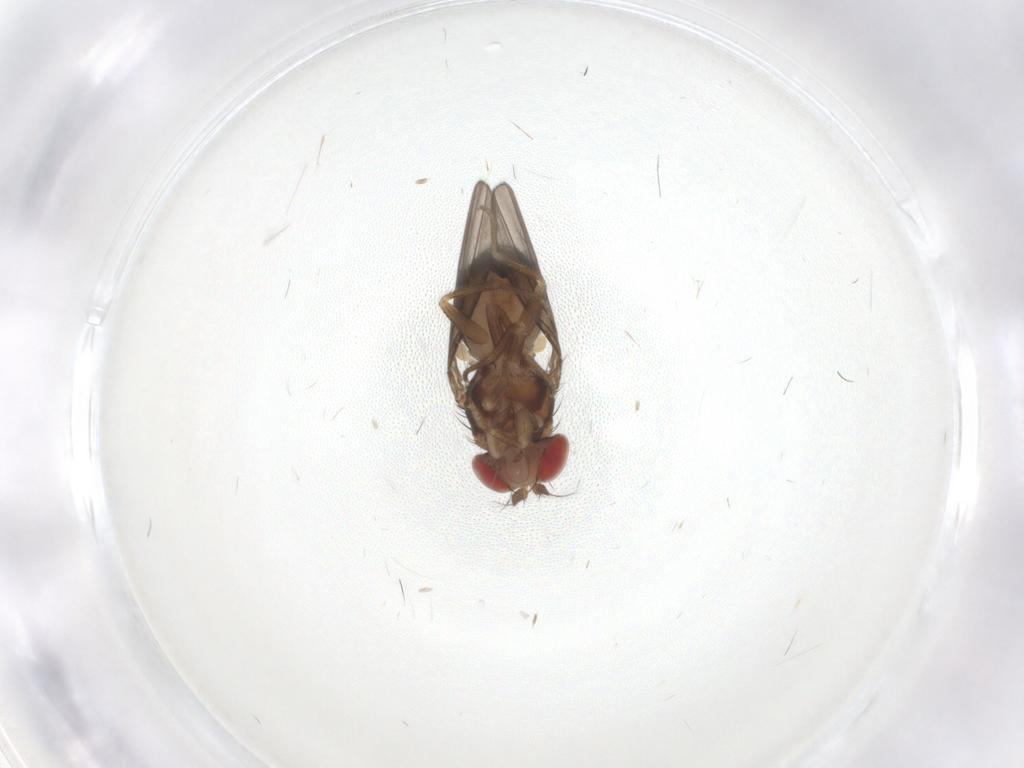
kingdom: Animalia
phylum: Arthropoda
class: Insecta
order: Diptera
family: Drosophilidae
